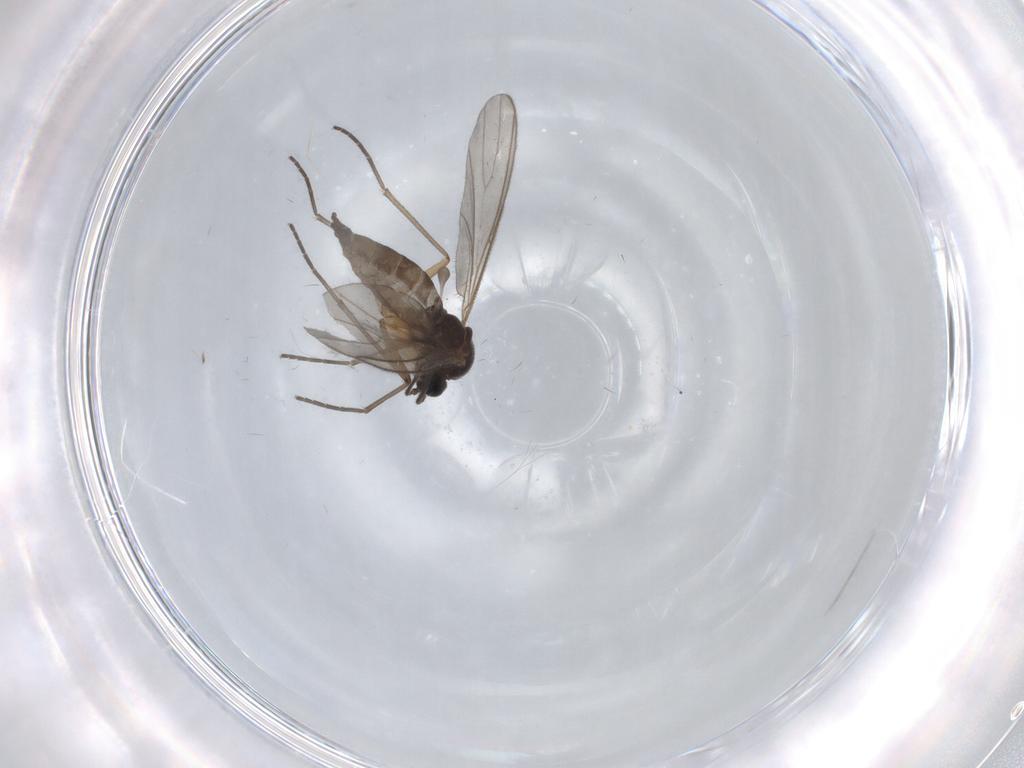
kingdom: Animalia
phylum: Arthropoda
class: Insecta
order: Diptera
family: Sciaridae
